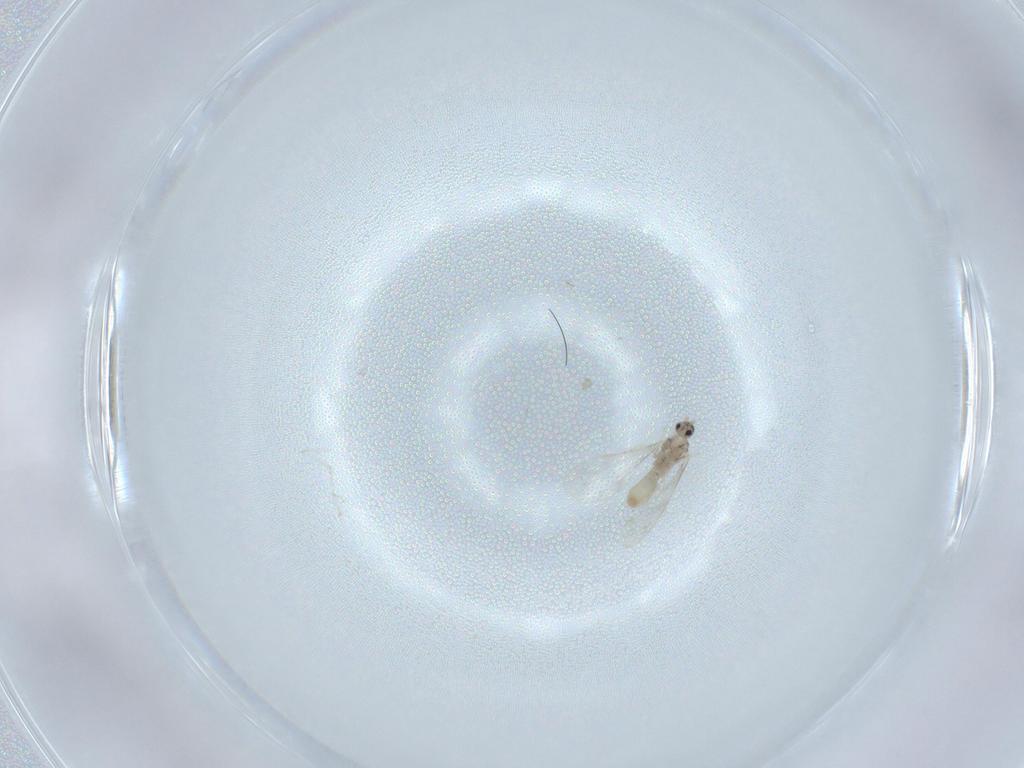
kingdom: Animalia
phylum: Arthropoda
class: Insecta
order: Diptera
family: Cecidomyiidae
